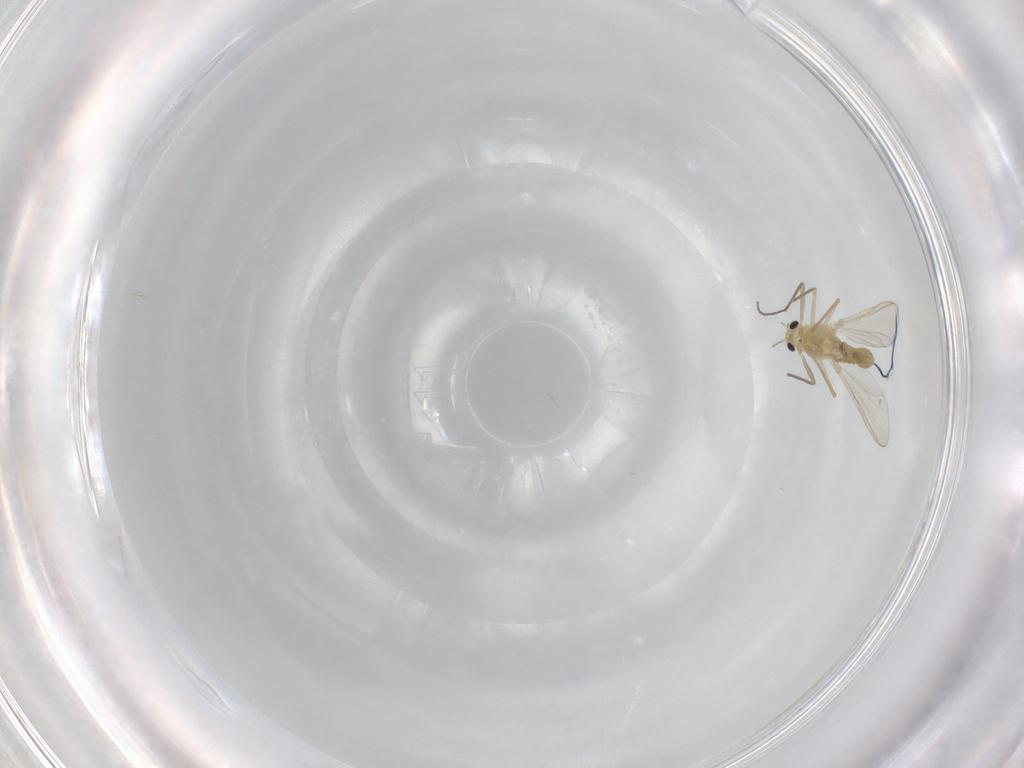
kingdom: Animalia
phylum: Arthropoda
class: Insecta
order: Diptera
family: Chironomidae
